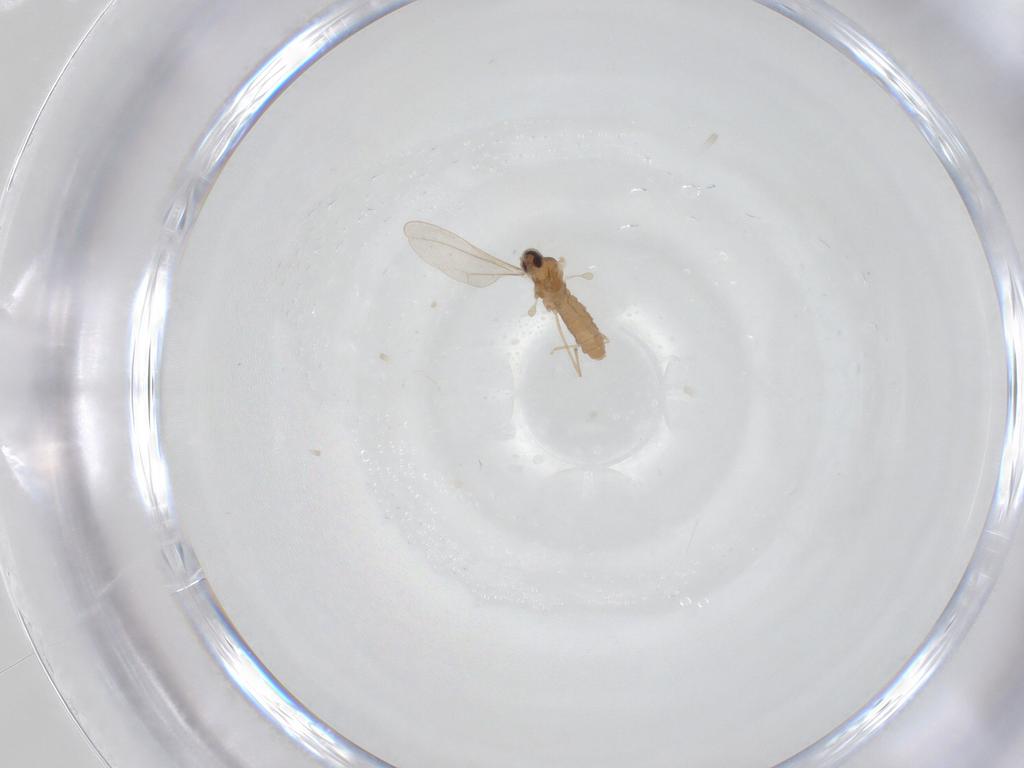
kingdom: Animalia
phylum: Arthropoda
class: Insecta
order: Diptera
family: Cecidomyiidae
